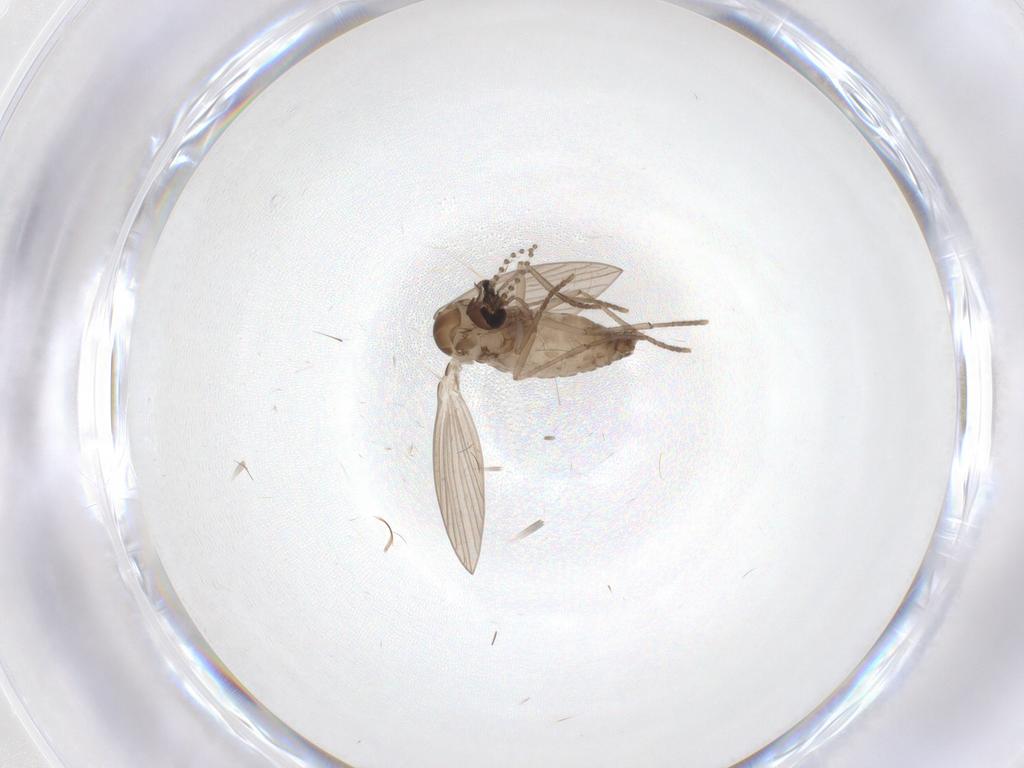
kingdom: Animalia
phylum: Arthropoda
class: Insecta
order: Diptera
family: Psychodidae
